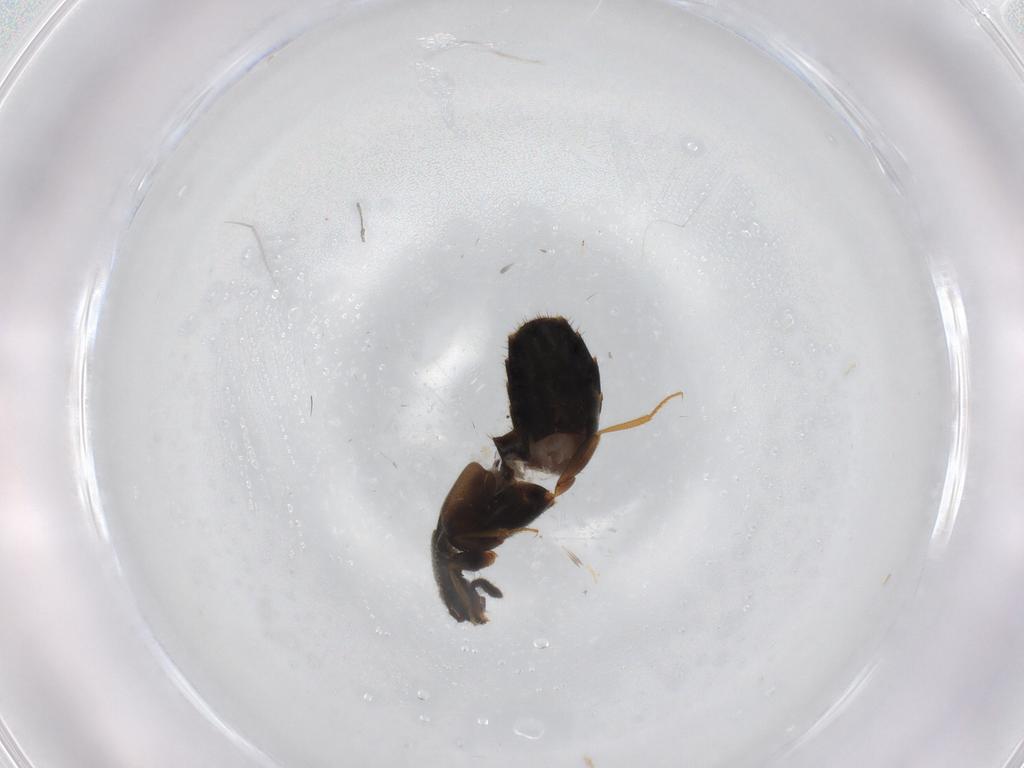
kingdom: Animalia
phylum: Arthropoda
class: Insecta
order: Coleoptera
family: Staphylinidae
